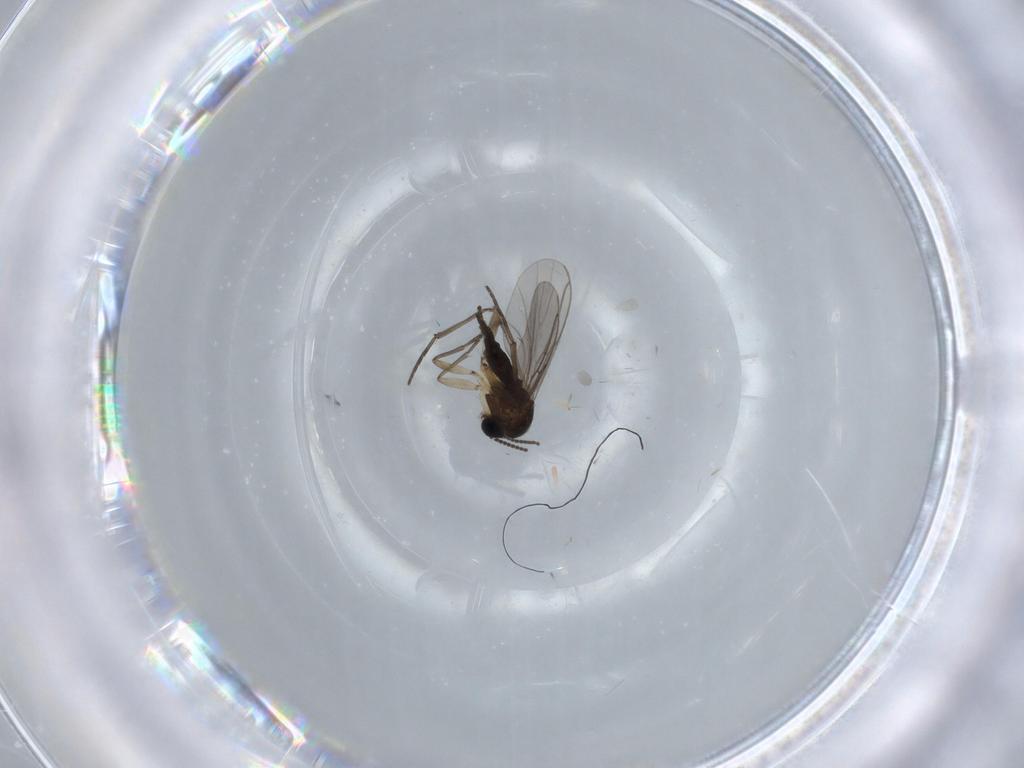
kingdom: Animalia
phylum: Arthropoda
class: Insecta
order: Diptera
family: Sciaridae
